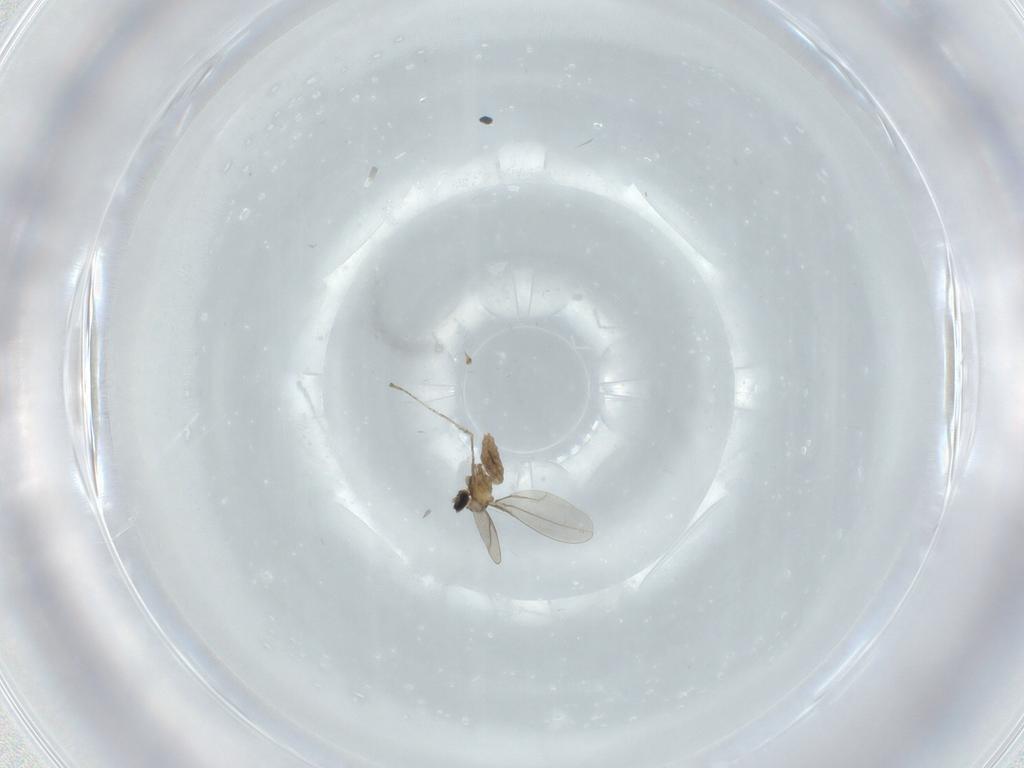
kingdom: Animalia
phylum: Arthropoda
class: Insecta
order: Diptera
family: Cecidomyiidae
